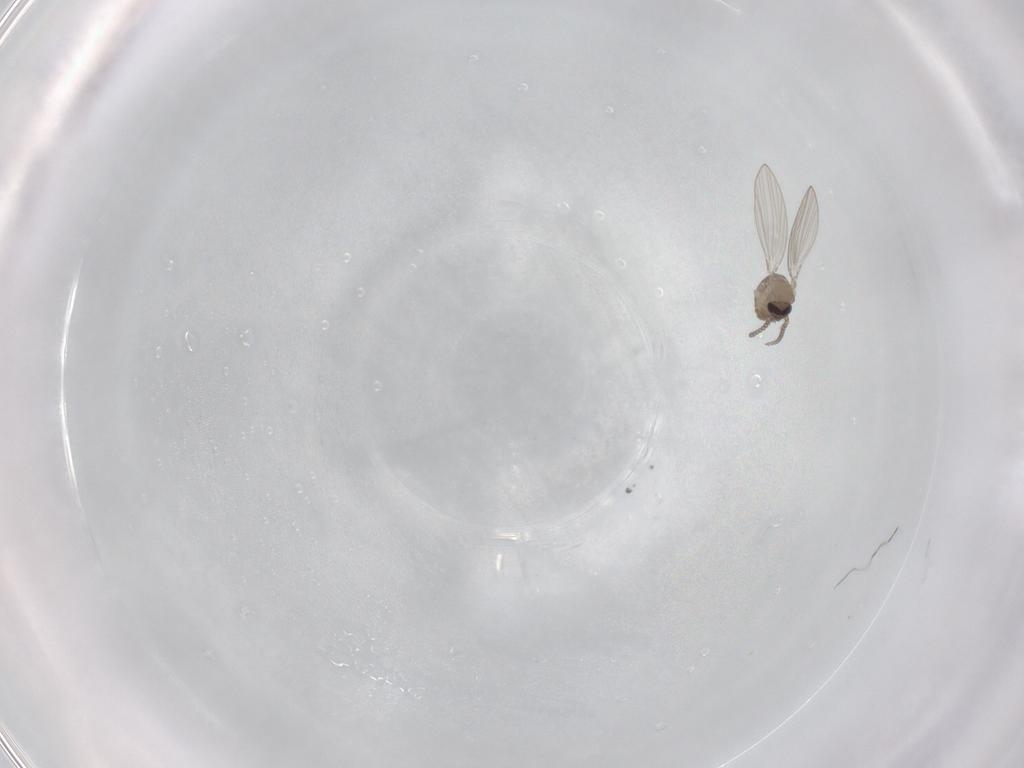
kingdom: Animalia
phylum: Arthropoda
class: Insecta
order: Diptera
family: Psychodidae
